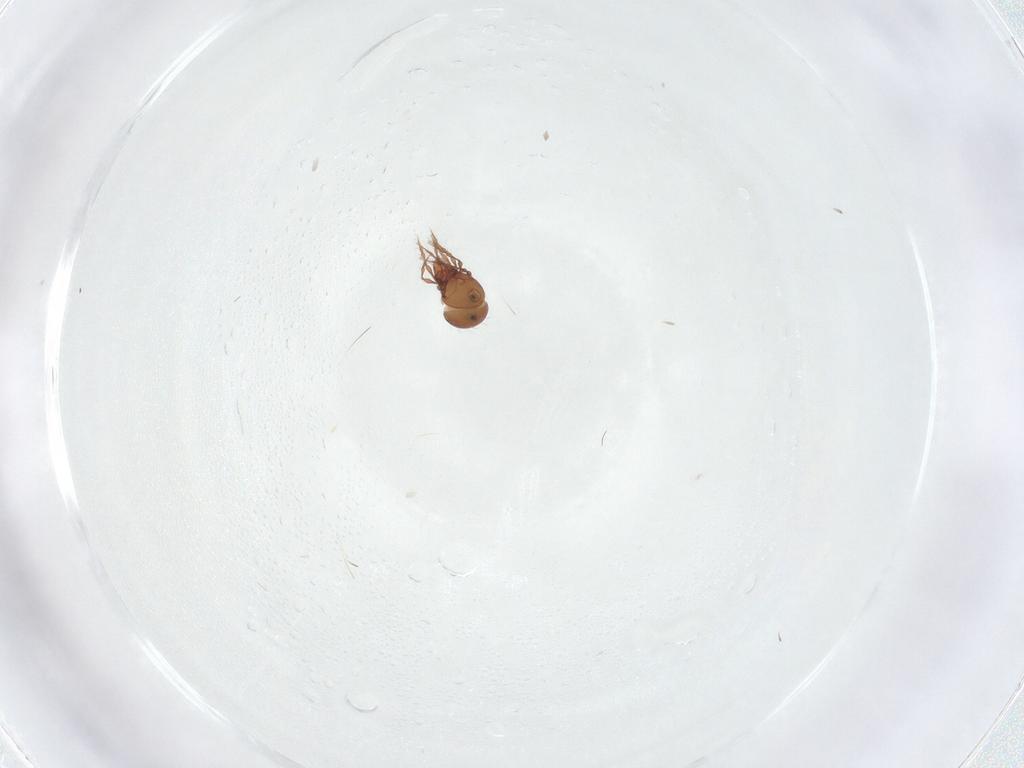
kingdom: Animalia
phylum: Arthropoda
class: Arachnida
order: Sarcoptiformes
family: Oppiidae
